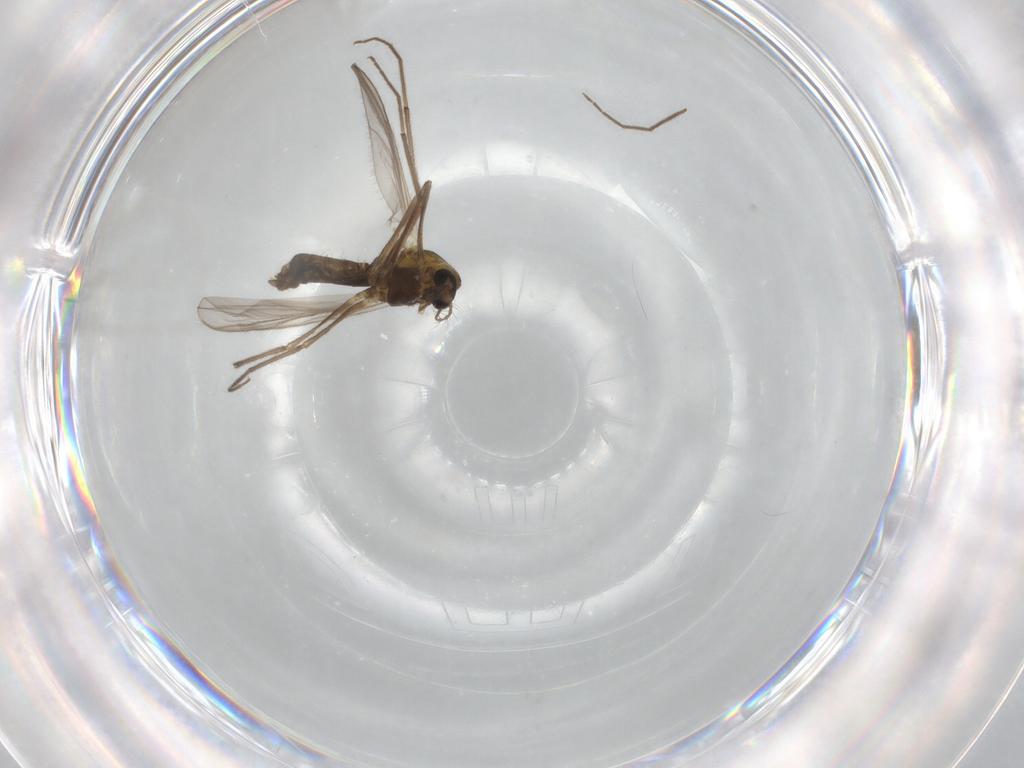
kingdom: Animalia
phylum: Arthropoda
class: Insecta
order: Diptera
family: Chironomidae
